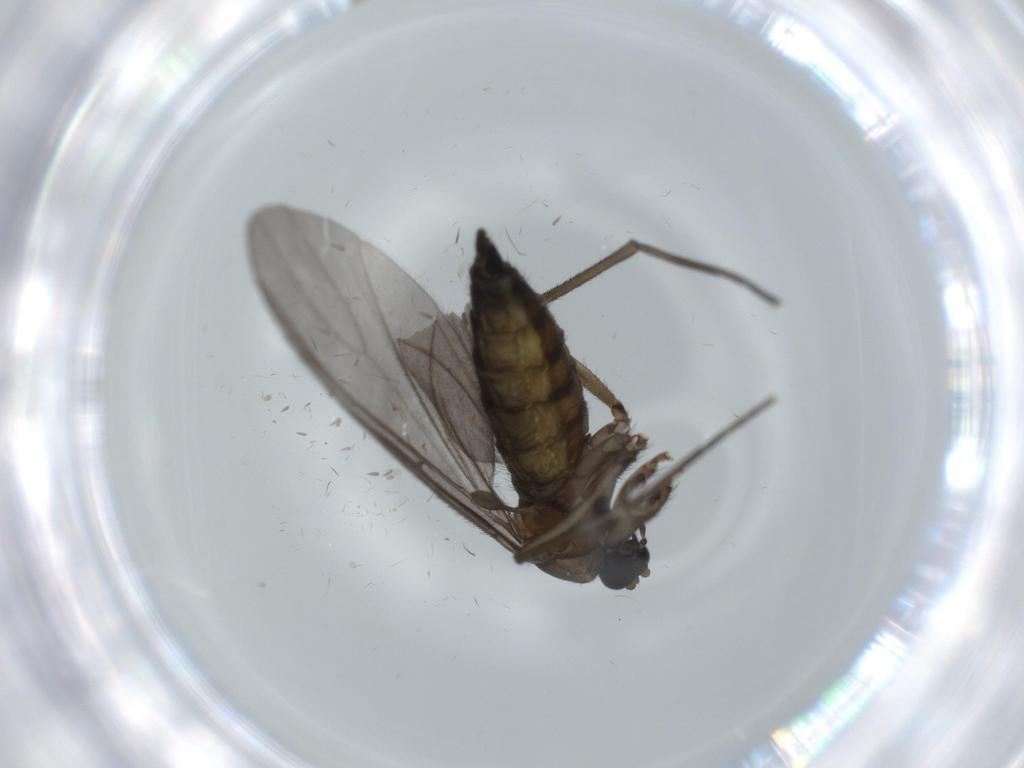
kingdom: Animalia
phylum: Arthropoda
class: Insecta
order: Diptera
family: Sciaridae
